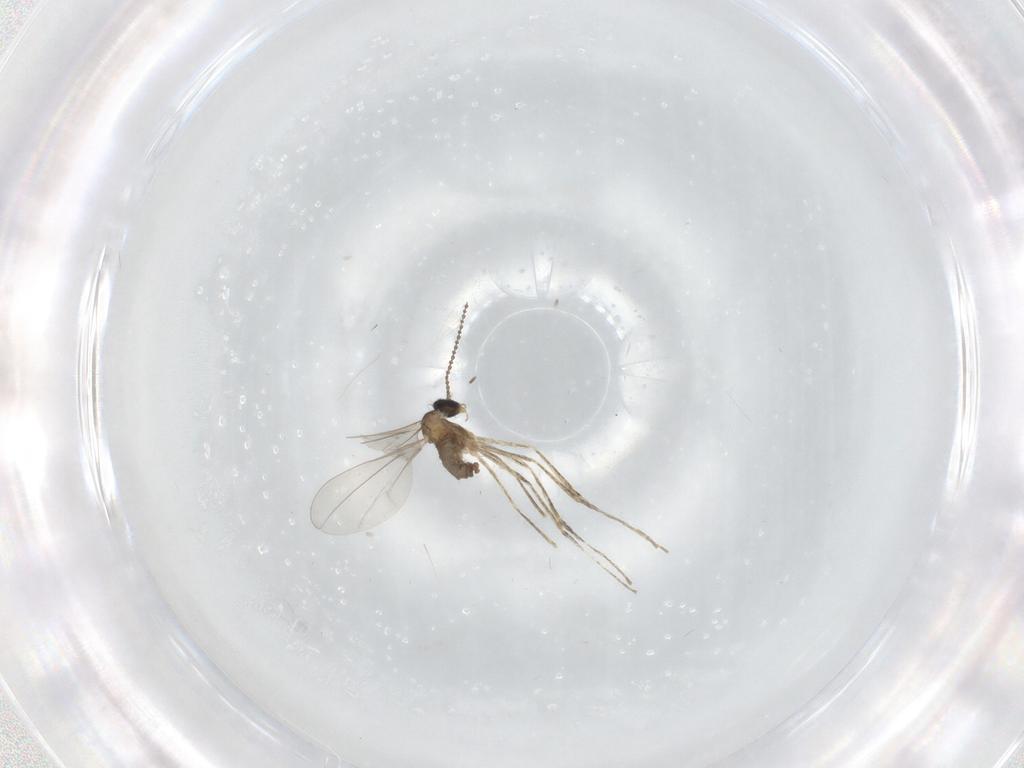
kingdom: Animalia
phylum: Arthropoda
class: Insecta
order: Diptera
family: Cecidomyiidae
